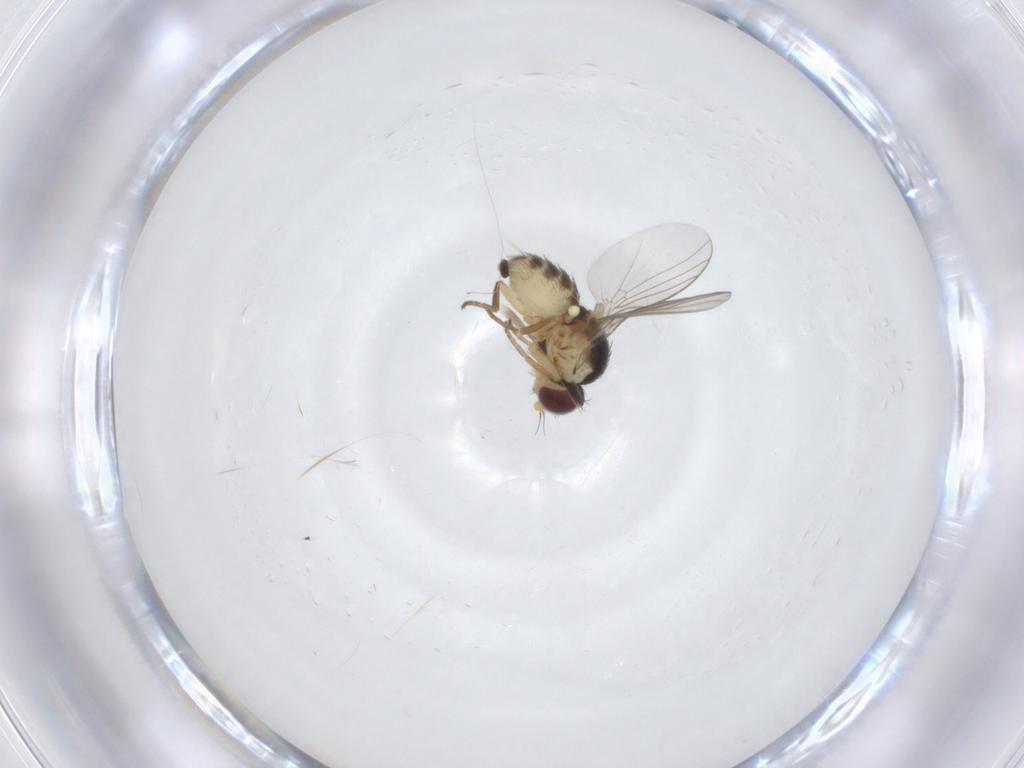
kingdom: Animalia
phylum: Arthropoda
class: Insecta
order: Diptera
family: Agromyzidae
